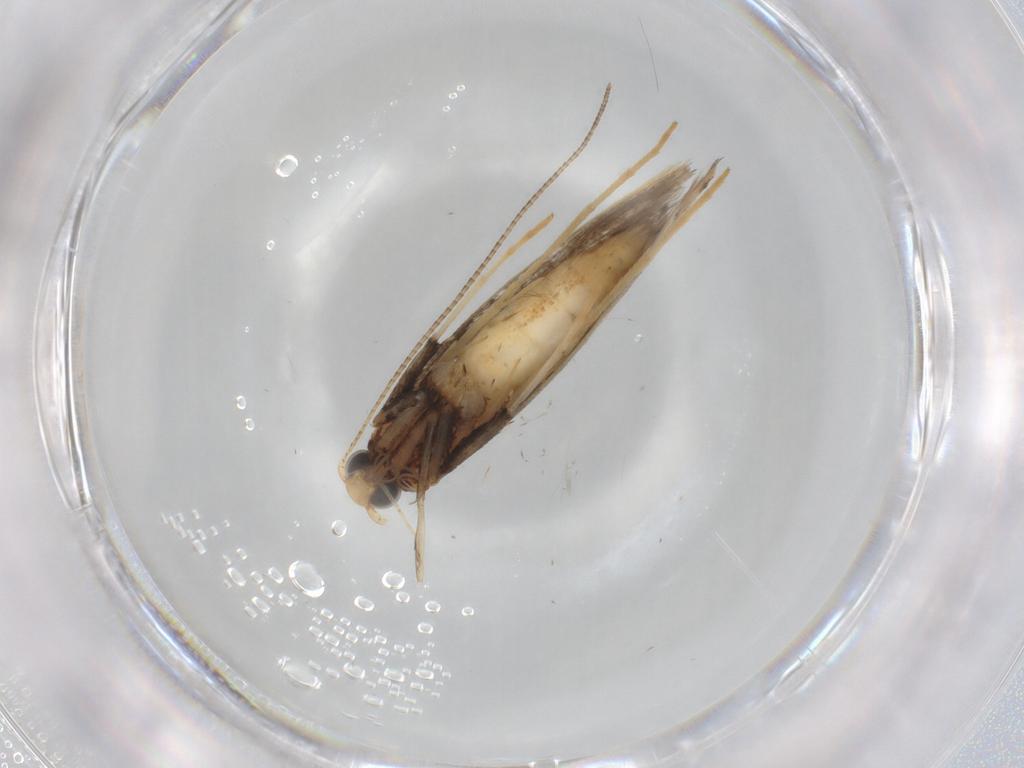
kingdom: Animalia
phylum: Arthropoda
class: Insecta
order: Lepidoptera
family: Gracillariidae
